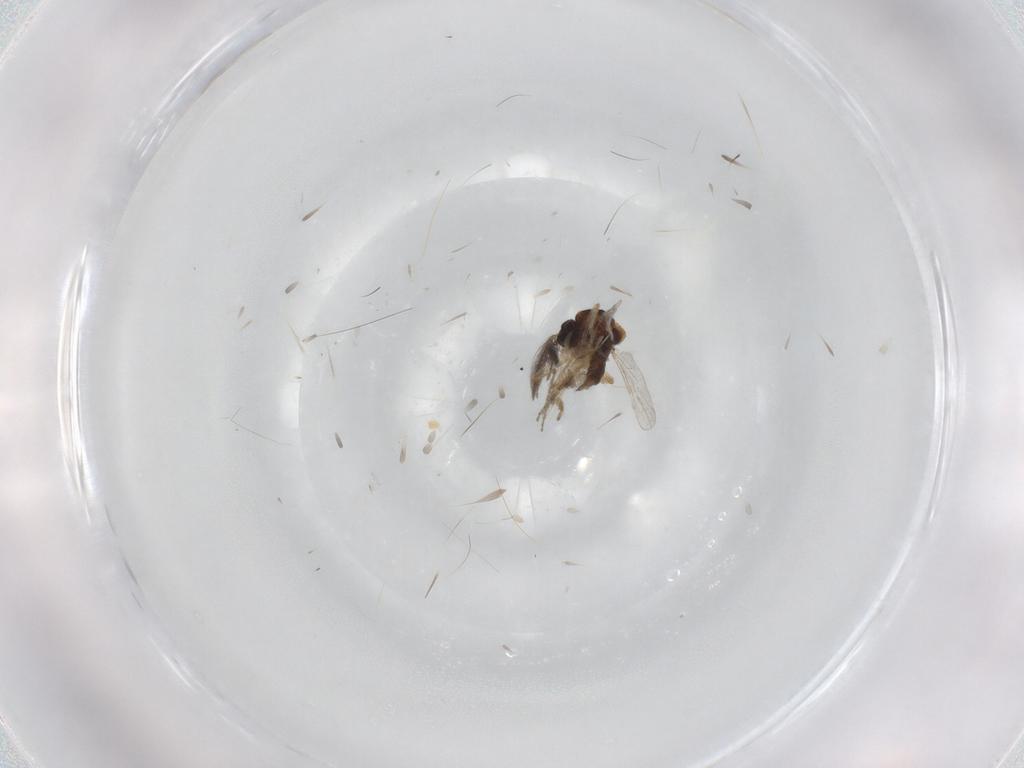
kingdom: Animalia
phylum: Arthropoda
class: Insecta
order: Diptera
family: Ceratopogonidae
